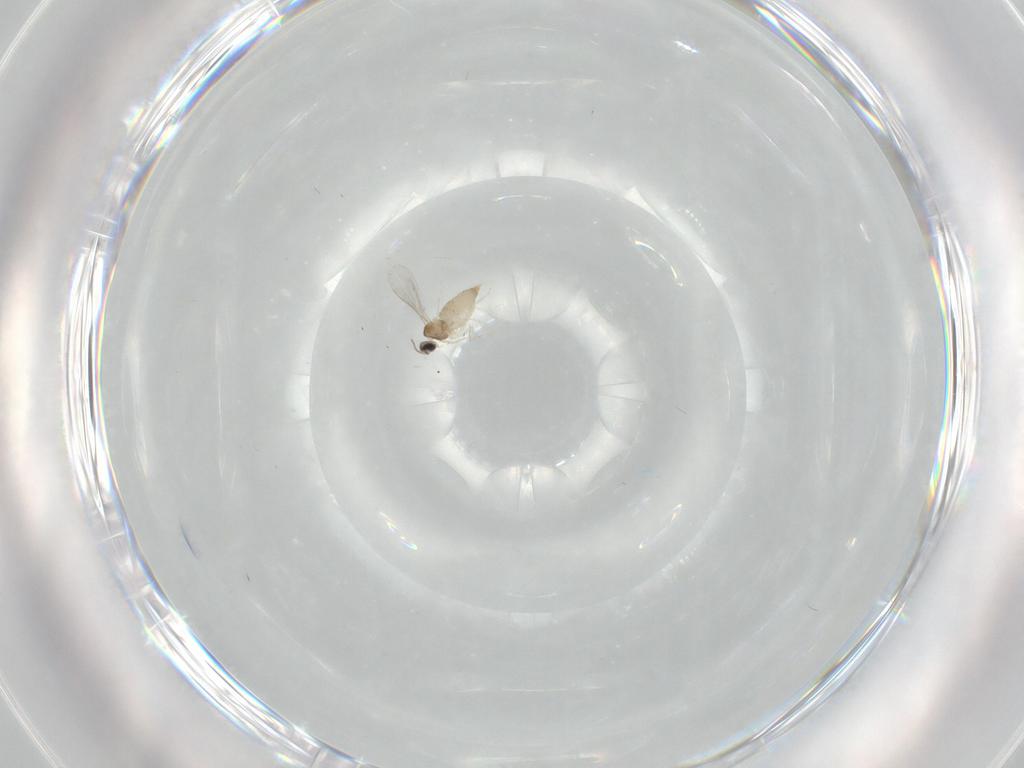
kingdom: Animalia
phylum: Arthropoda
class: Insecta
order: Diptera
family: Psychodidae
